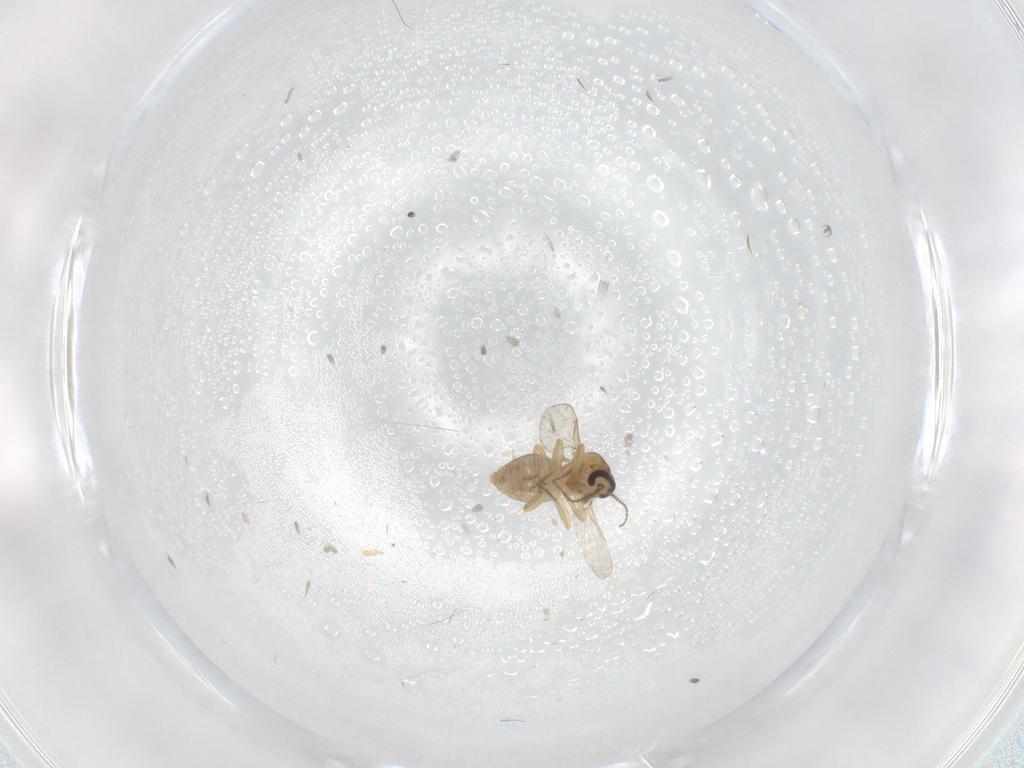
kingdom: Animalia
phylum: Arthropoda
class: Insecta
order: Diptera
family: Ceratopogonidae
